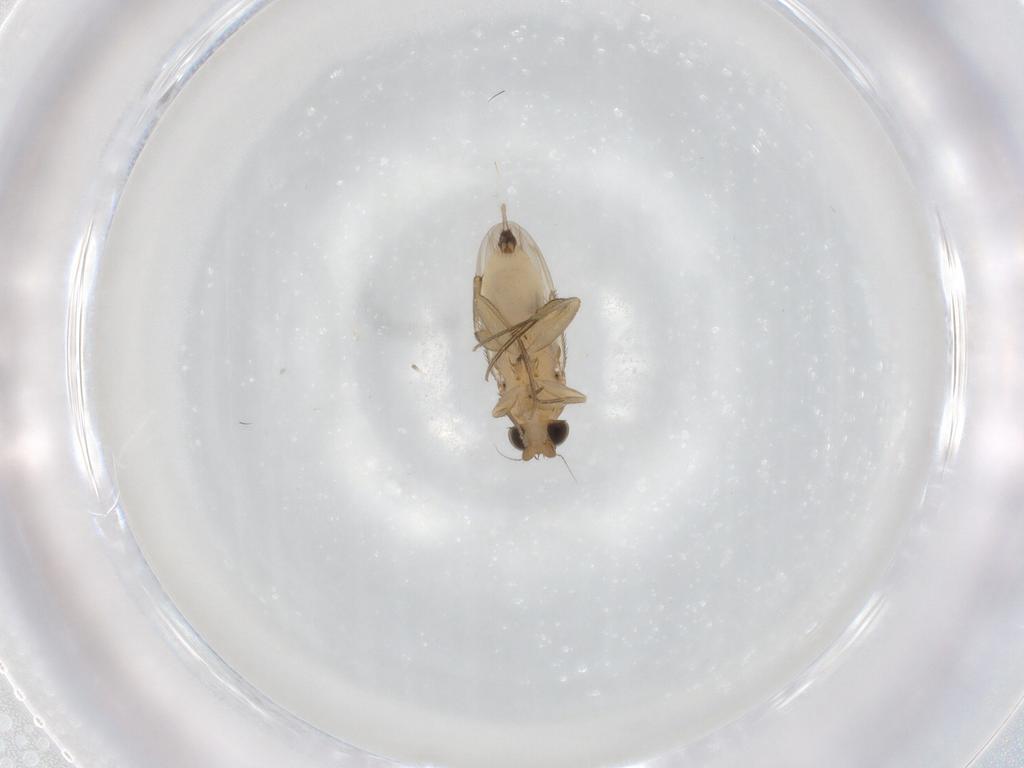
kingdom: Animalia
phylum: Arthropoda
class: Insecta
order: Diptera
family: Phoridae
